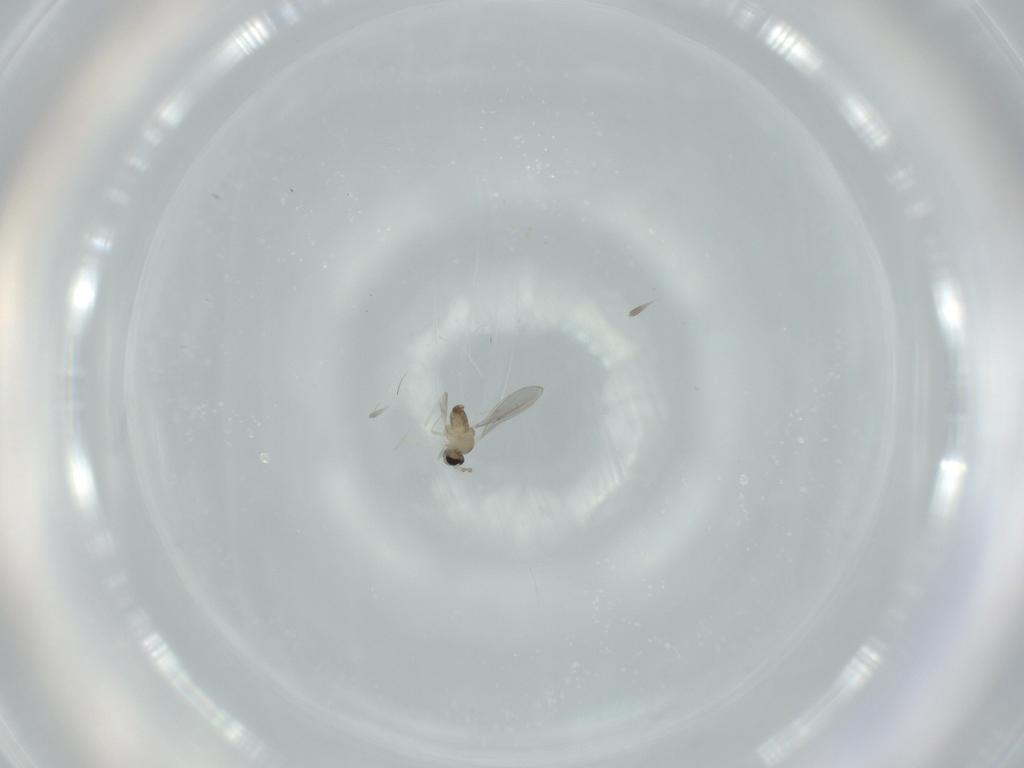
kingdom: Animalia
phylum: Arthropoda
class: Insecta
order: Diptera
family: Cecidomyiidae
